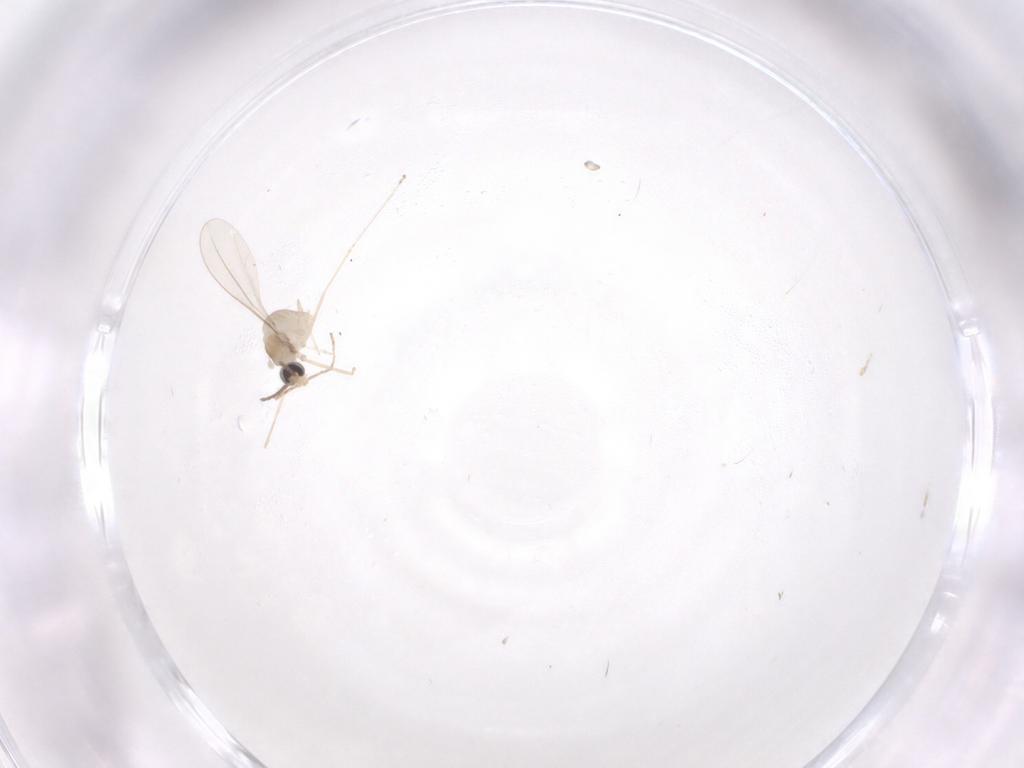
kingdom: Animalia
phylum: Arthropoda
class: Insecta
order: Diptera
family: Cecidomyiidae
